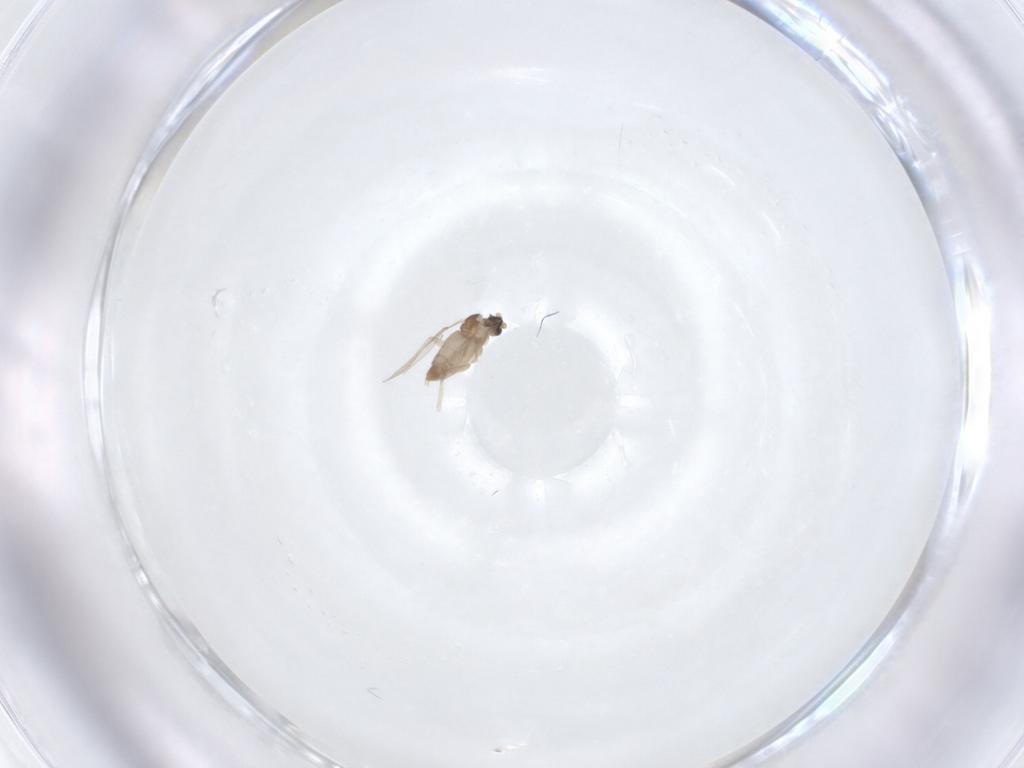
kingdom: Animalia
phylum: Arthropoda
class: Insecta
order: Diptera
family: Cecidomyiidae
